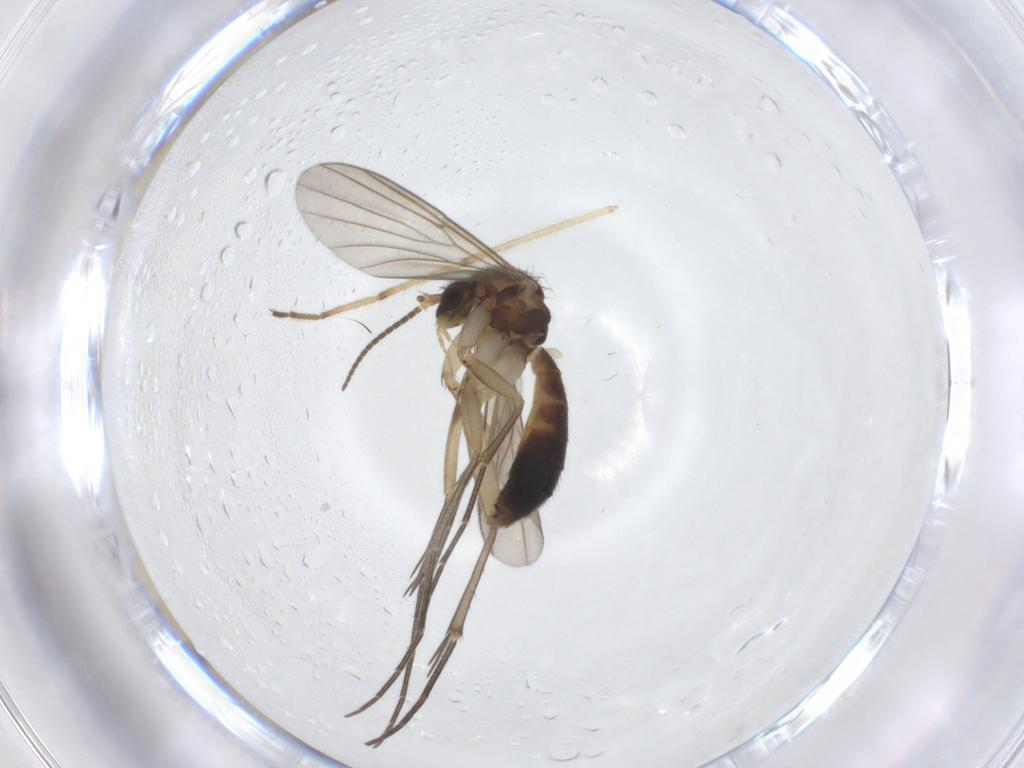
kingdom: Animalia
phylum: Arthropoda
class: Insecta
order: Diptera
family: Mycetophilidae
